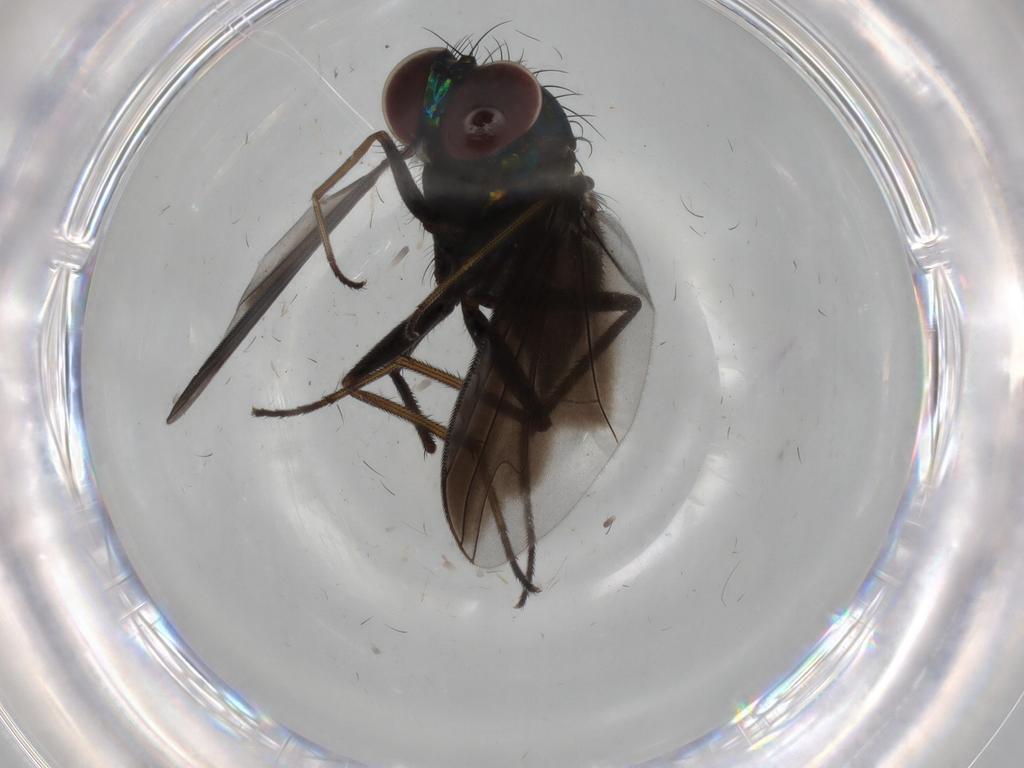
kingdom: Animalia
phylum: Arthropoda
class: Insecta
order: Diptera
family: Dolichopodidae
